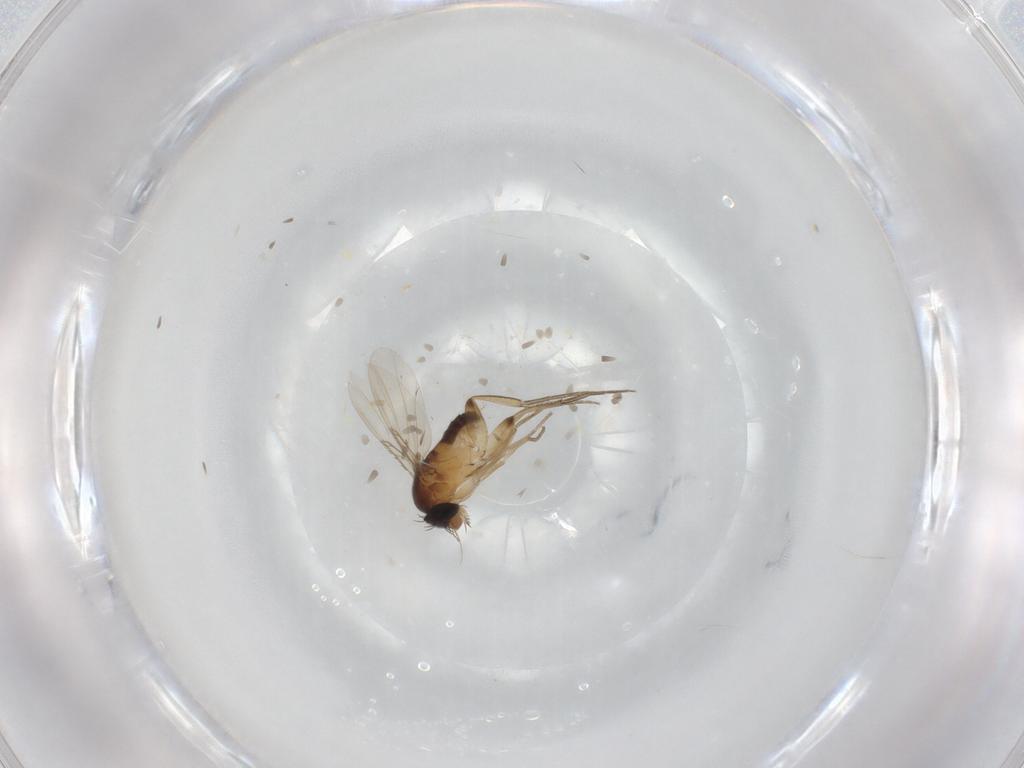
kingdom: Animalia
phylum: Arthropoda
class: Insecta
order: Diptera
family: Phoridae
